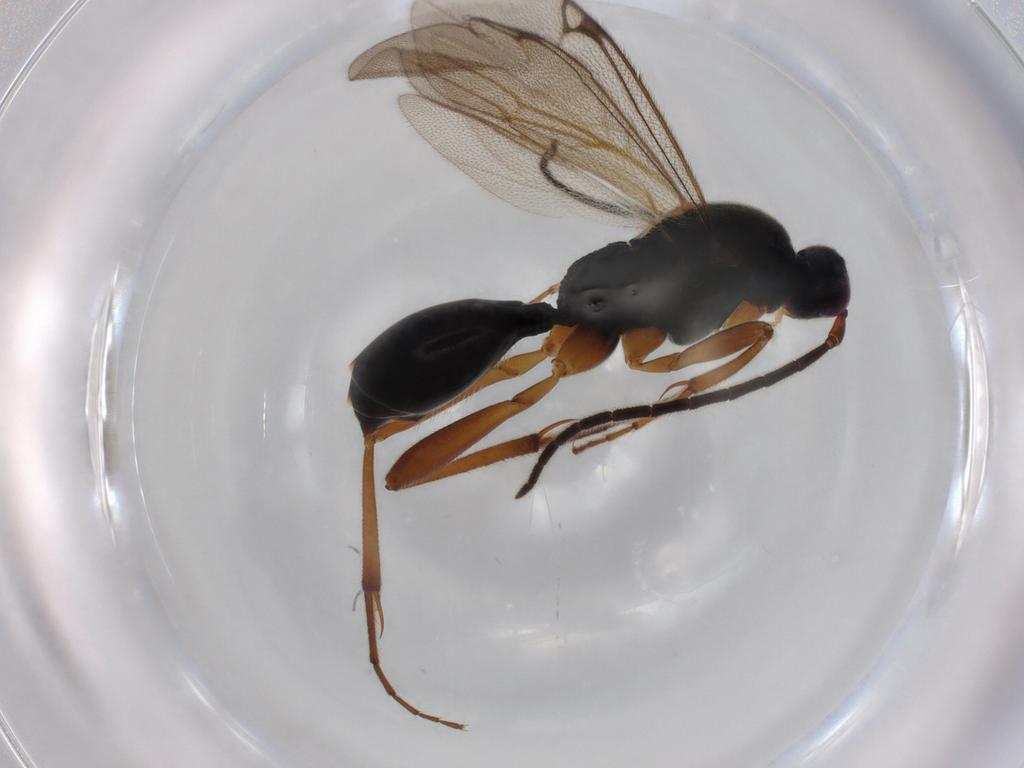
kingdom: Animalia
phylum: Arthropoda
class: Insecta
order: Hymenoptera
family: Proctotrupidae
